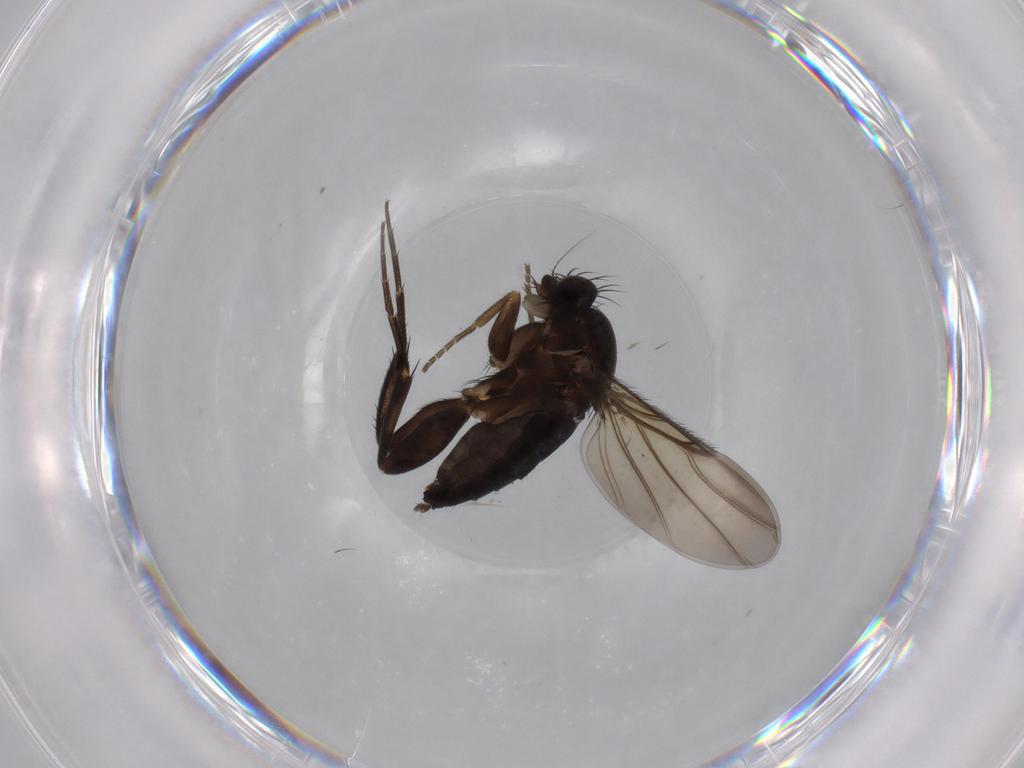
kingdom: Animalia
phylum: Arthropoda
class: Insecta
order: Diptera
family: Phoridae
